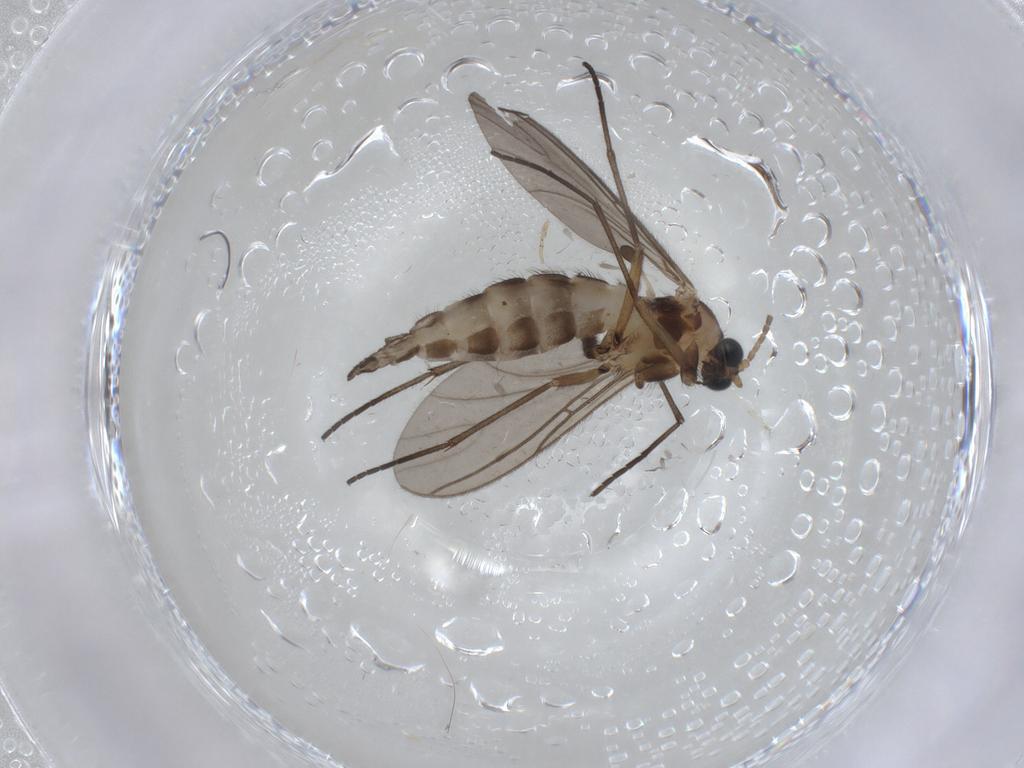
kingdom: Animalia
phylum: Arthropoda
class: Insecta
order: Diptera
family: Sciaridae
